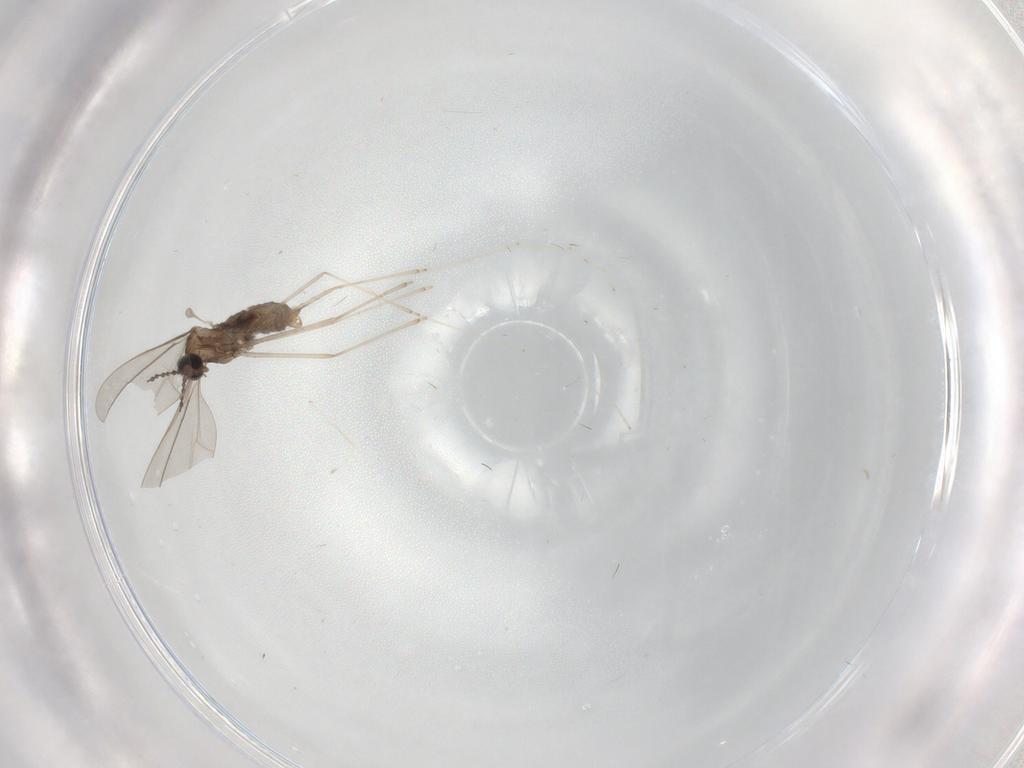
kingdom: Animalia
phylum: Arthropoda
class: Insecta
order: Diptera
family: Cecidomyiidae
